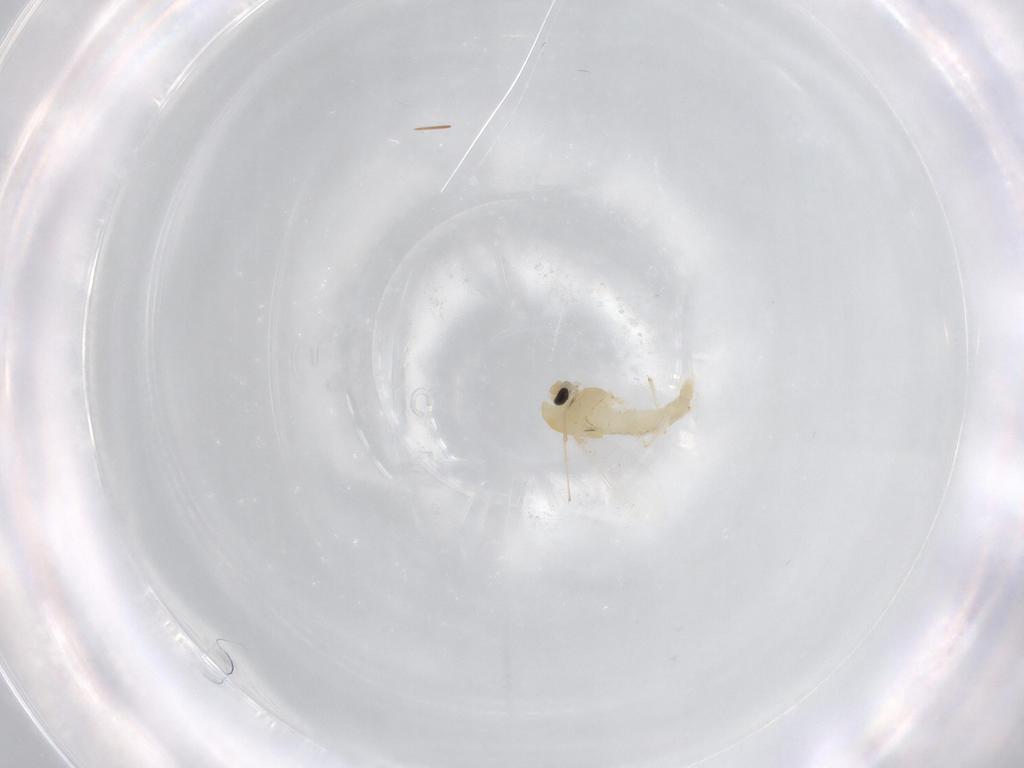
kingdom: Animalia
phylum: Arthropoda
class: Insecta
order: Diptera
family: Chironomidae
